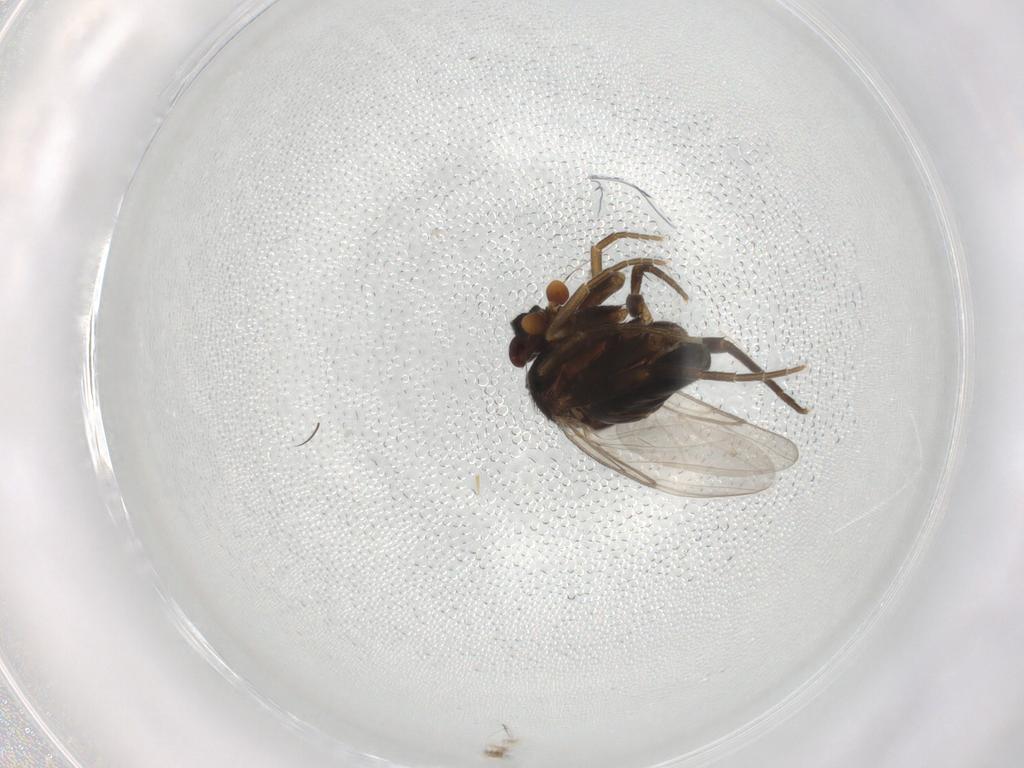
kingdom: Animalia
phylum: Arthropoda
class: Insecta
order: Diptera
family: Phoridae
